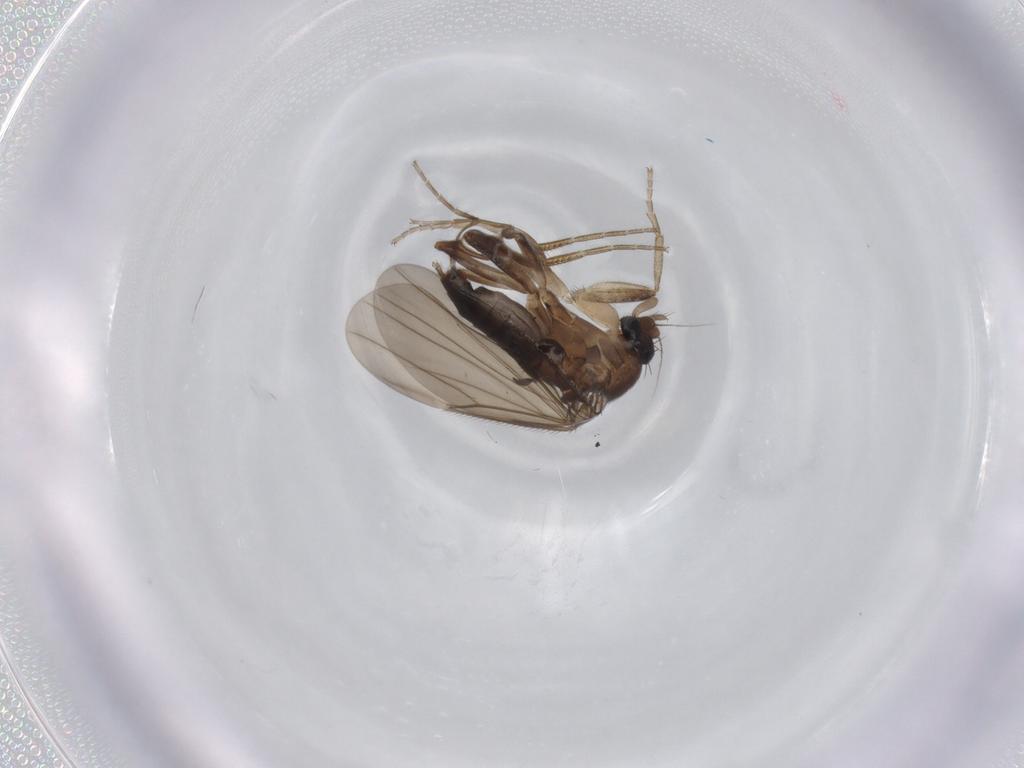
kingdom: Animalia
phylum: Arthropoda
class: Insecta
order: Diptera
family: Phoridae
